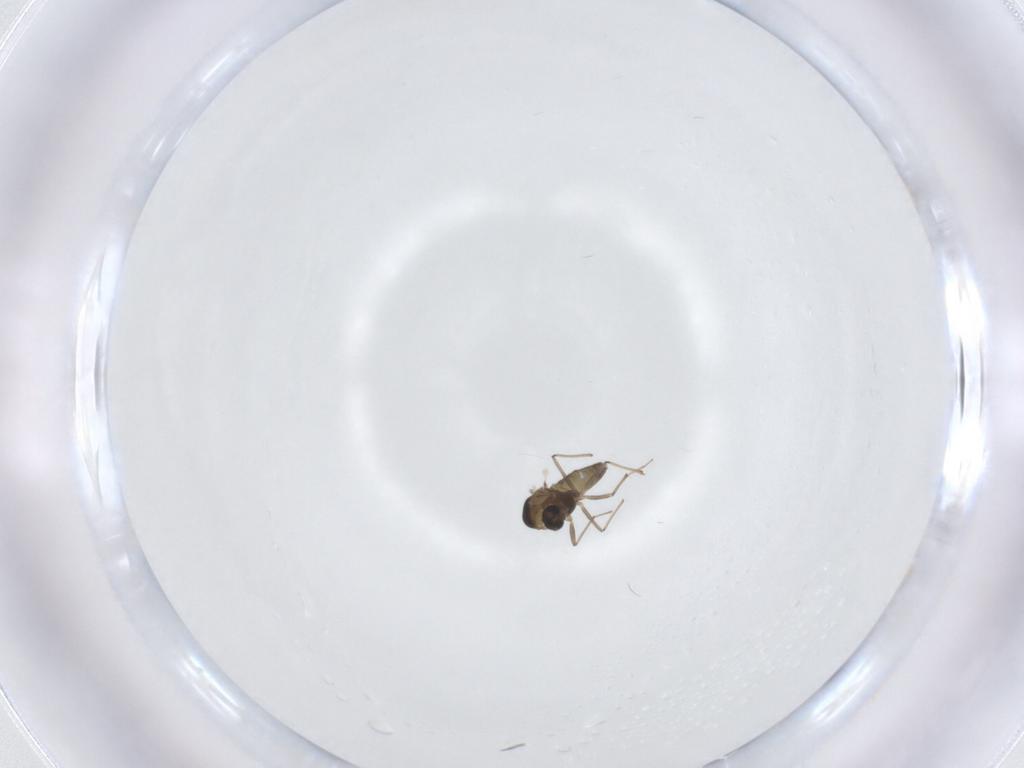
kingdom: Animalia
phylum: Arthropoda
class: Insecta
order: Diptera
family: Chironomidae
